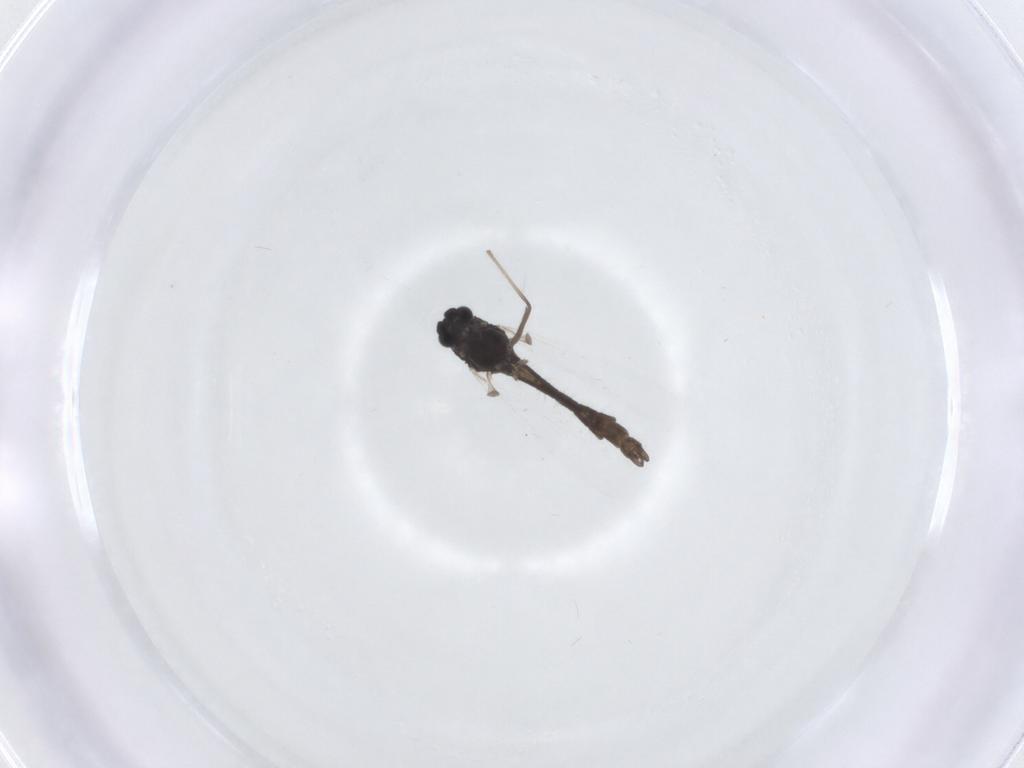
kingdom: Animalia
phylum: Arthropoda
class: Insecta
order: Diptera
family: Chironomidae
